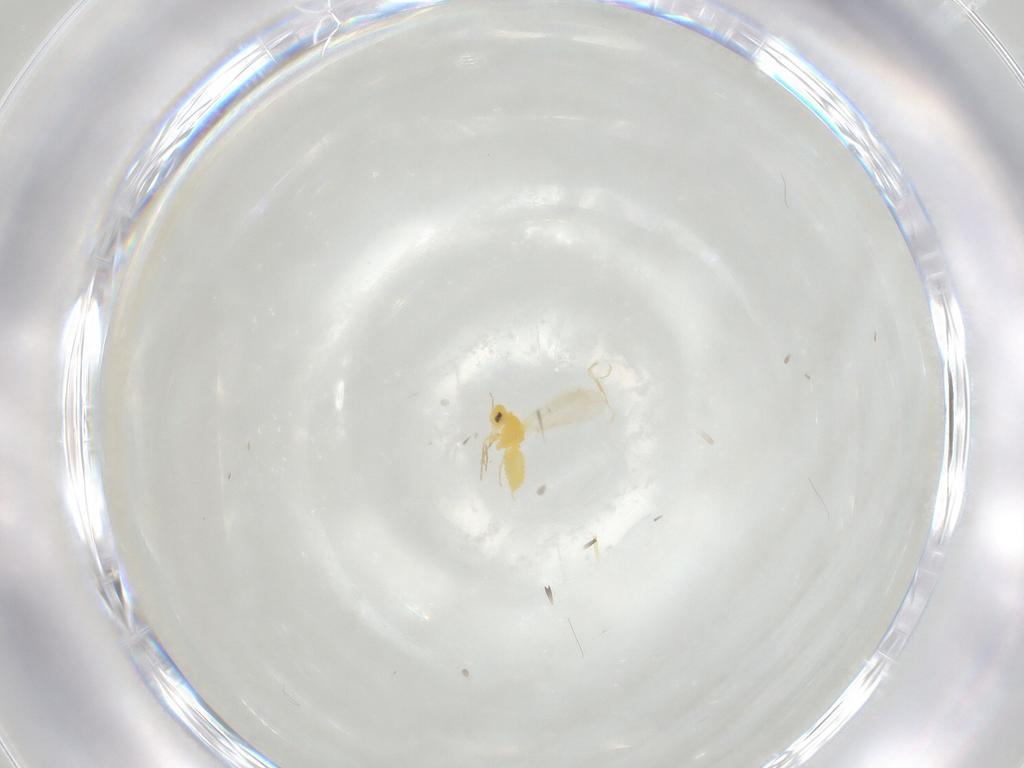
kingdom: Animalia
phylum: Arthropoda
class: Insecta
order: Hemiptera
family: Aleyrodidae
